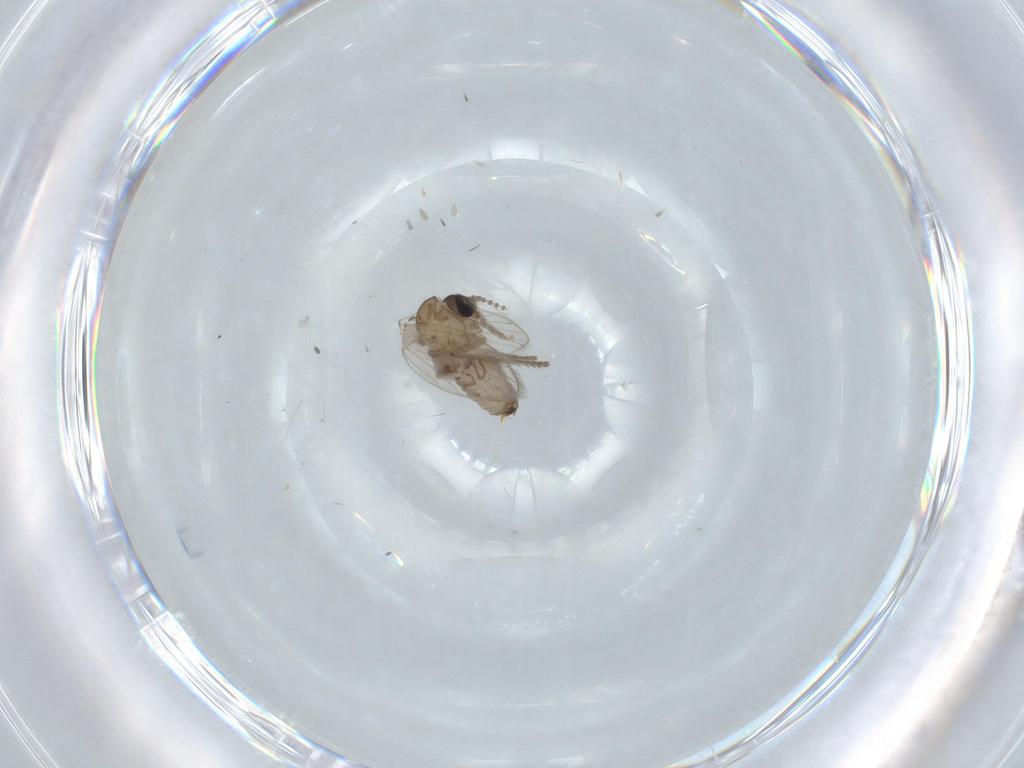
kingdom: Animalia
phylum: Arthropoda
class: Insecta
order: Diptera
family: Psychodidae
